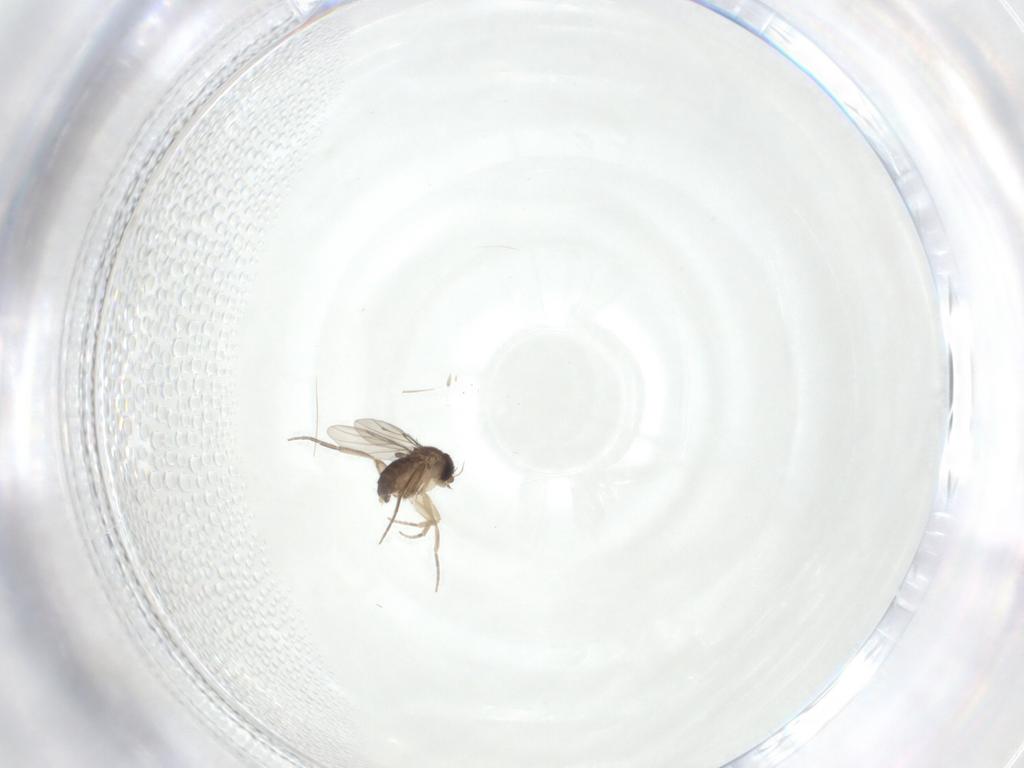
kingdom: Animalia
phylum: Arthropoda
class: Insecta
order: Diptera
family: Phoridae
